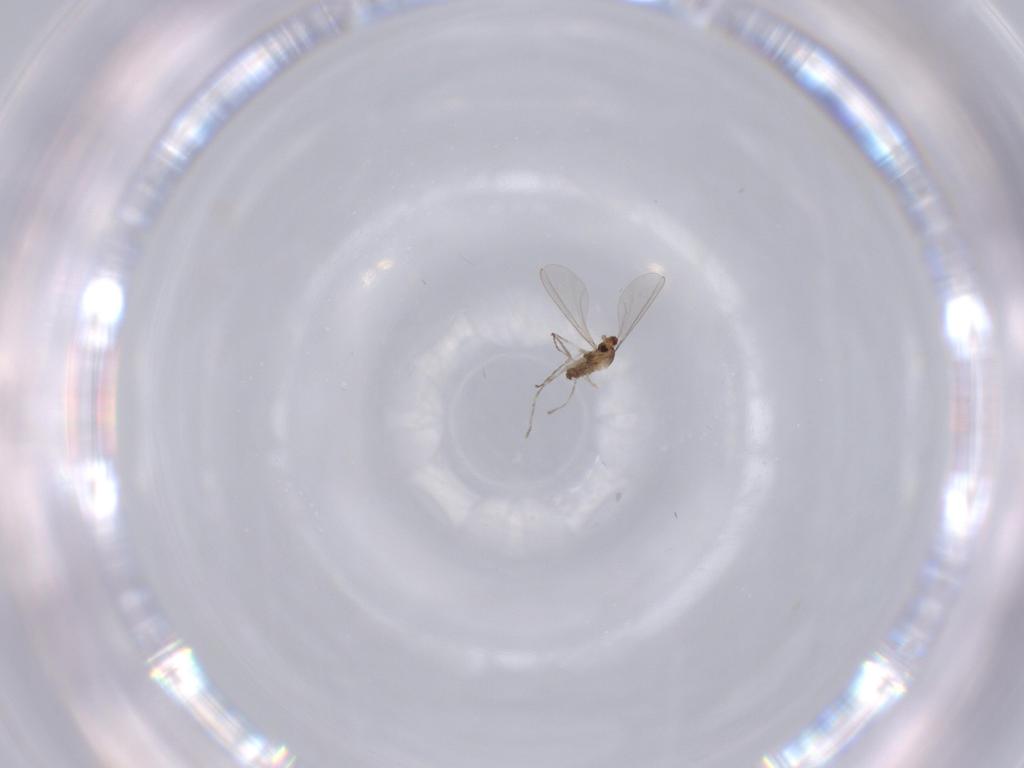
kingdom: Animalia
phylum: Arthropoda
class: Insecta
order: Diptera
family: Cecidomyiidae
